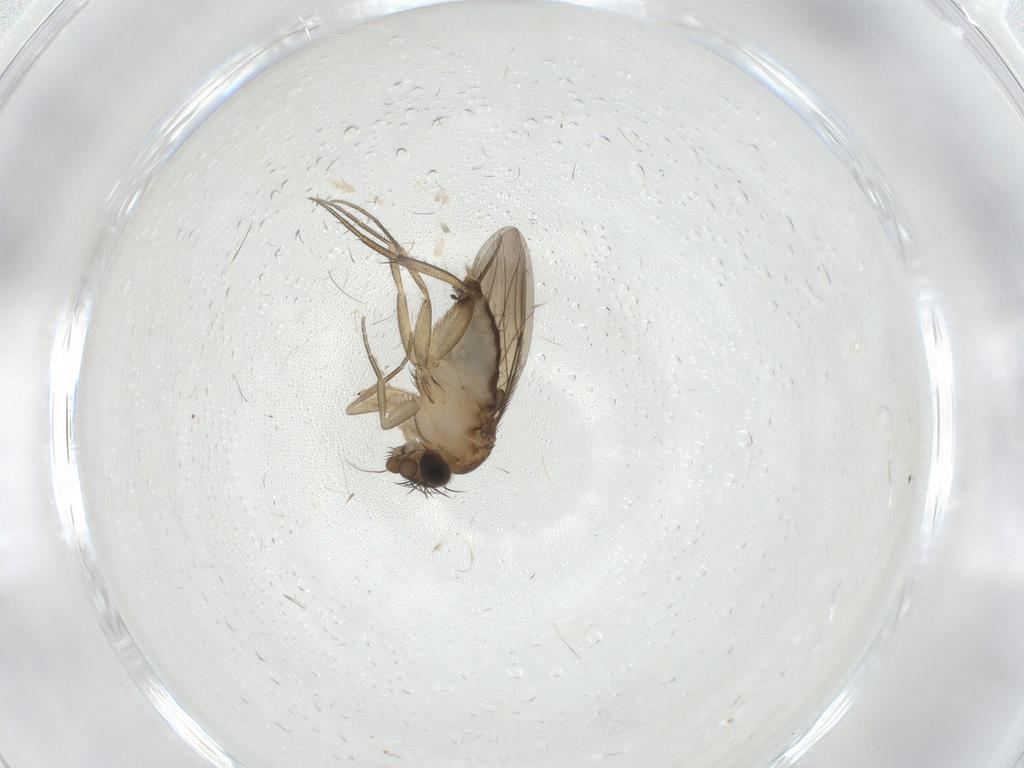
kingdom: Animalia
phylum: Arthropoda
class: Insecta
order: Diptera
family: Phoridae
